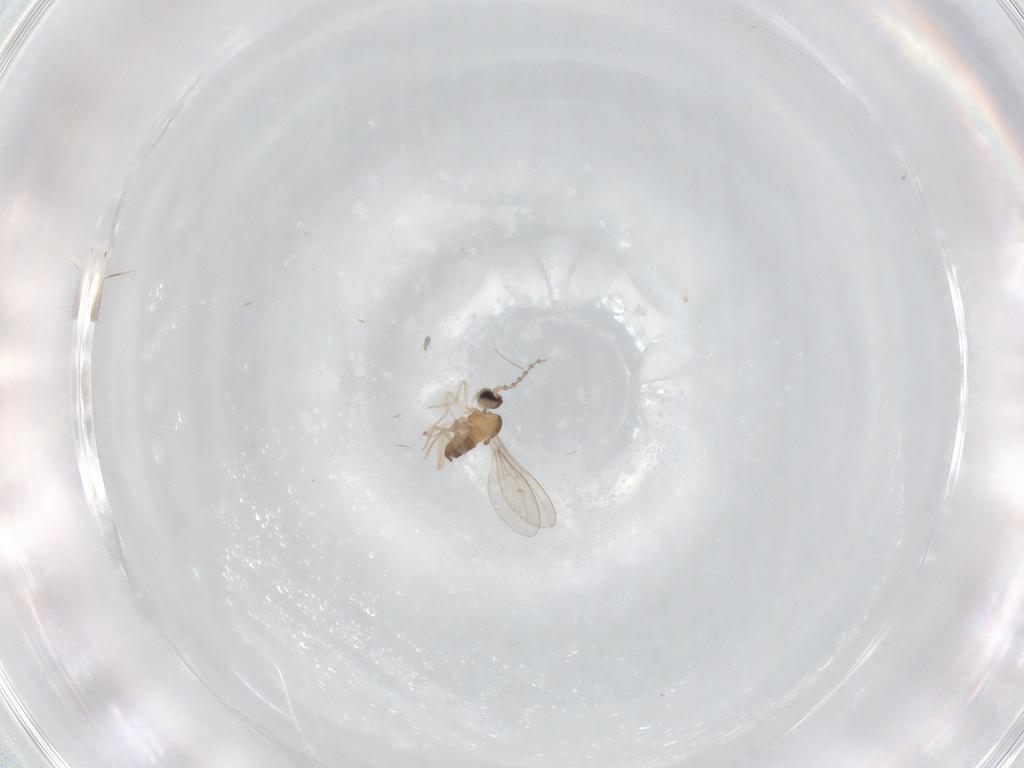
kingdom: Animalia
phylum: Arthropoda
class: Insecta
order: Diptera
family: Cecidomyiidae
